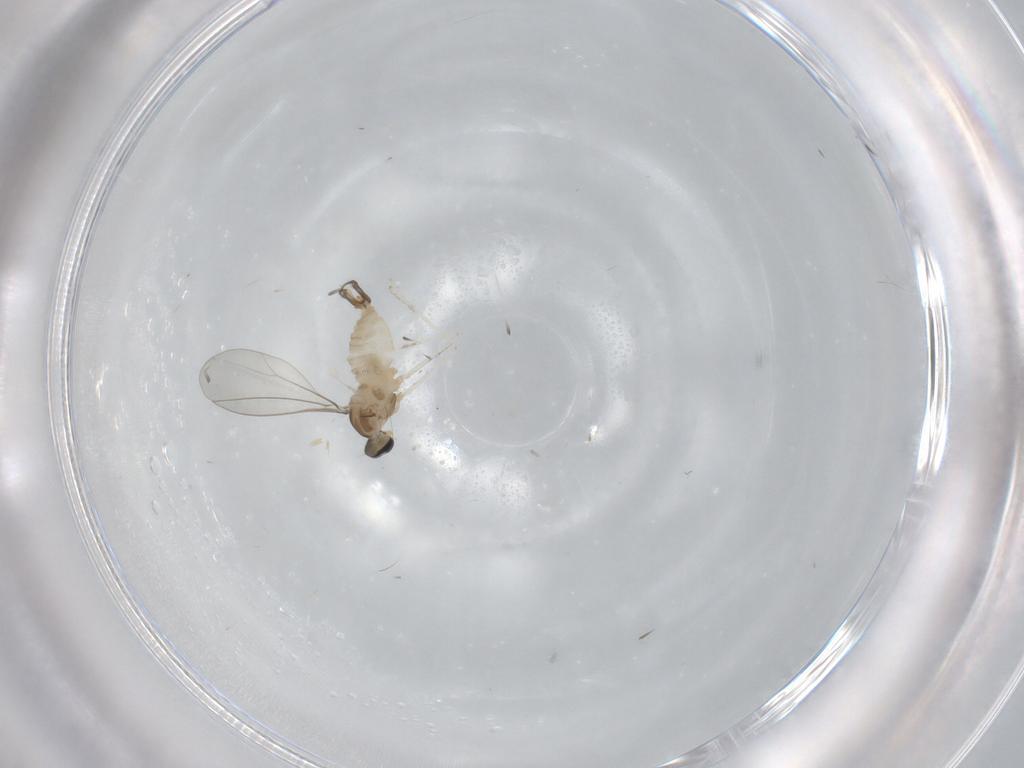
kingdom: Animalia
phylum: Arthropoda
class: Insecta
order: Diptera
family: Cecidomyiidae
